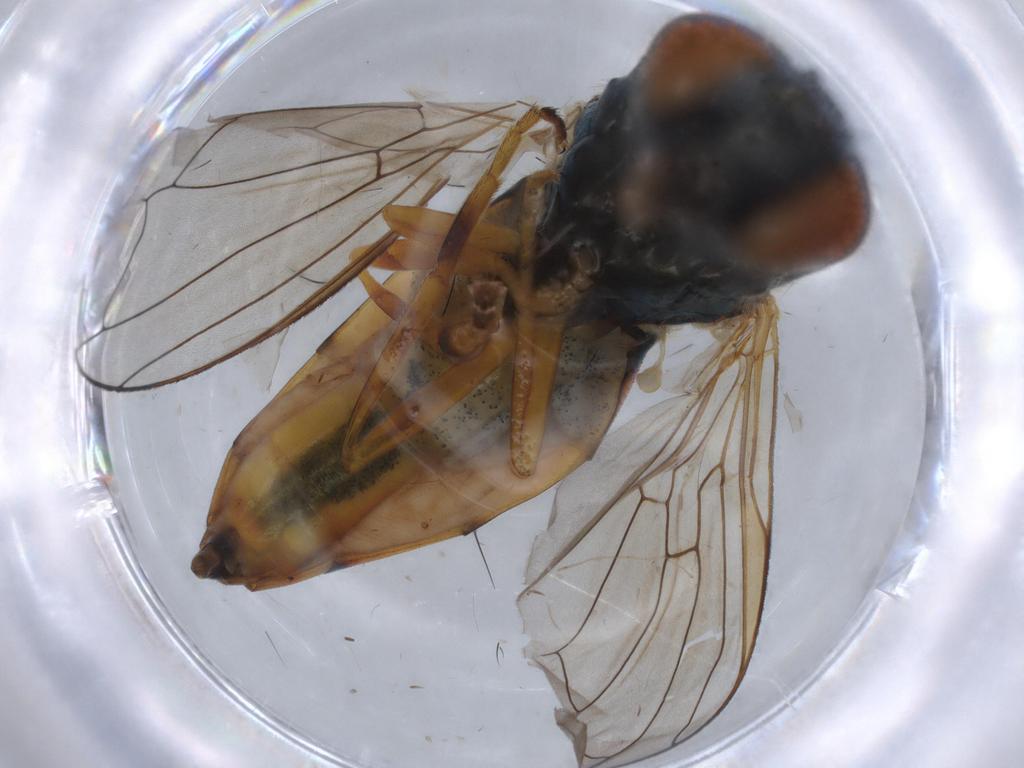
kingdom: Animalia
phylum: Arthropoda
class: Insecta
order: Diptera
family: Syrphidae
